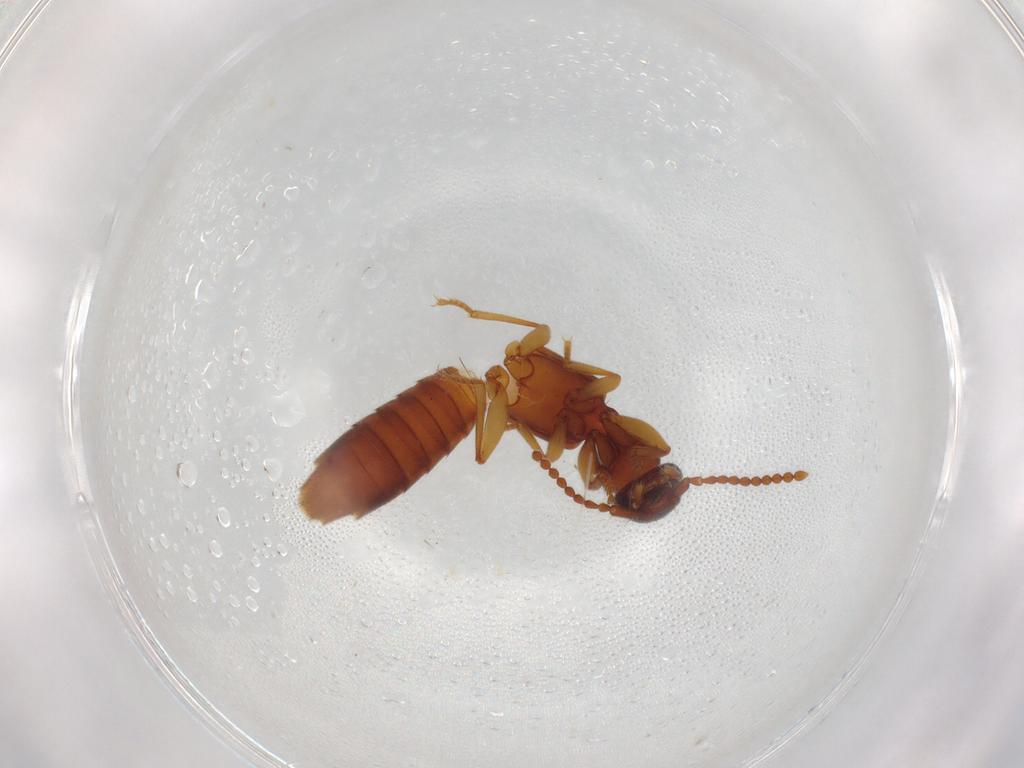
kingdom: Animalia
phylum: Arthropoda
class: Insecta
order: Coleoptera
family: Staphylinidae
